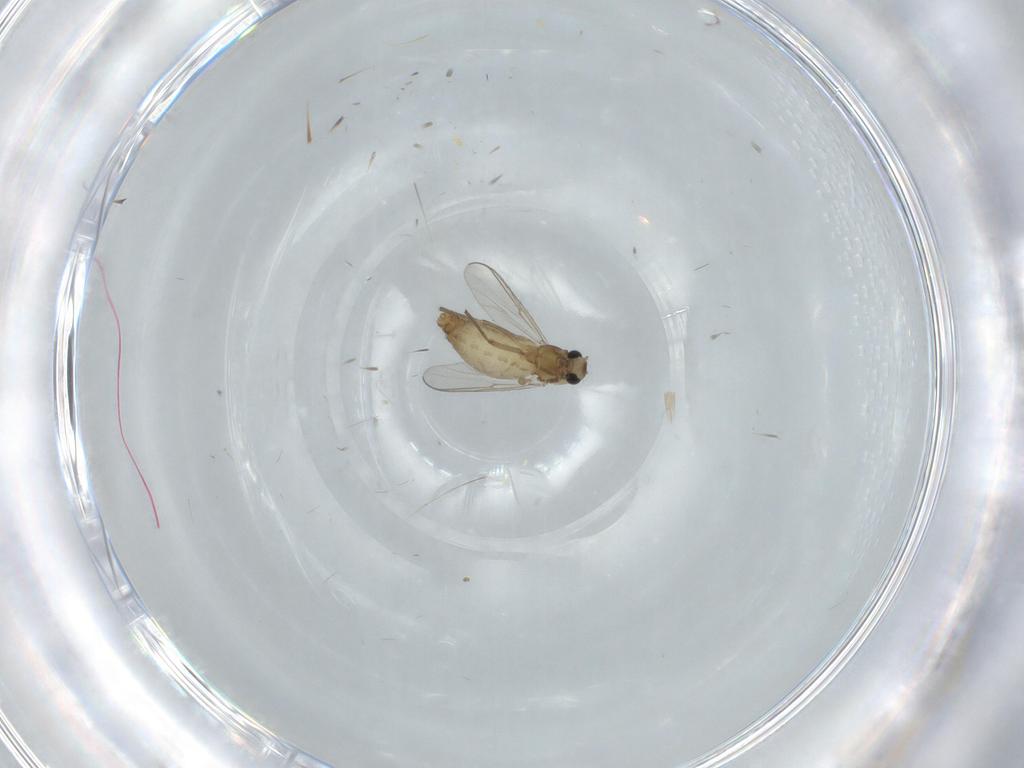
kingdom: Animalia
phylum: Arthropoda
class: Insecta
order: Diptera
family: Chironomidae
